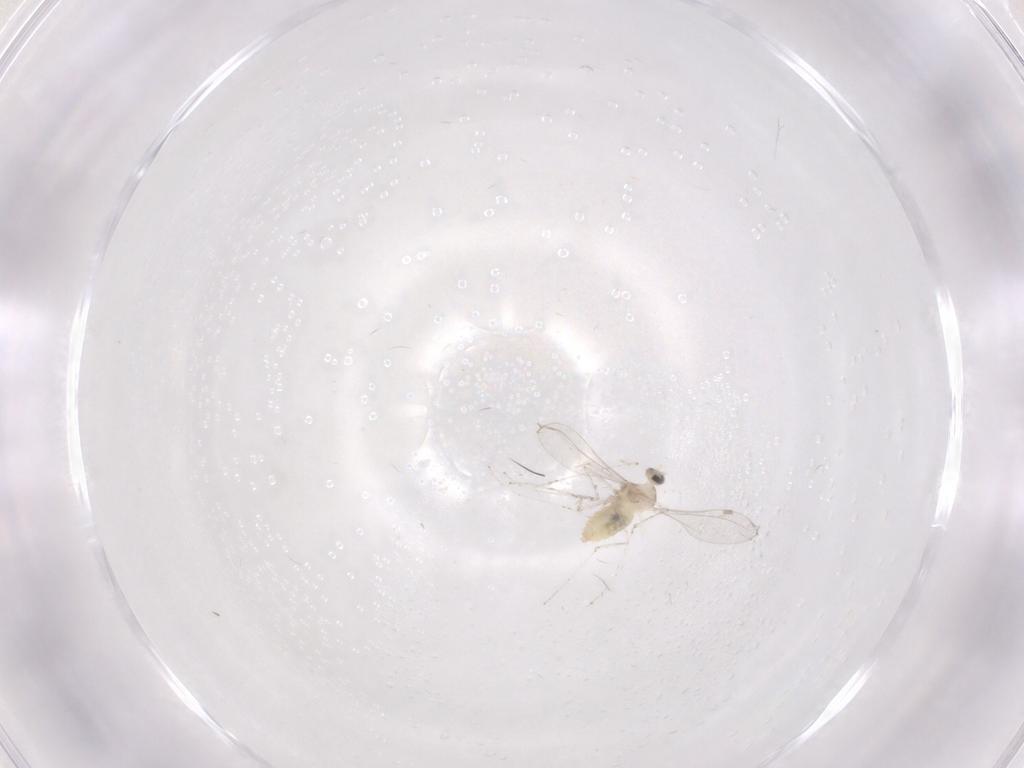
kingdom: Animalia
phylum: Arthropoda
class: Insecta
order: Diptera
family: Cecidomyiidae
